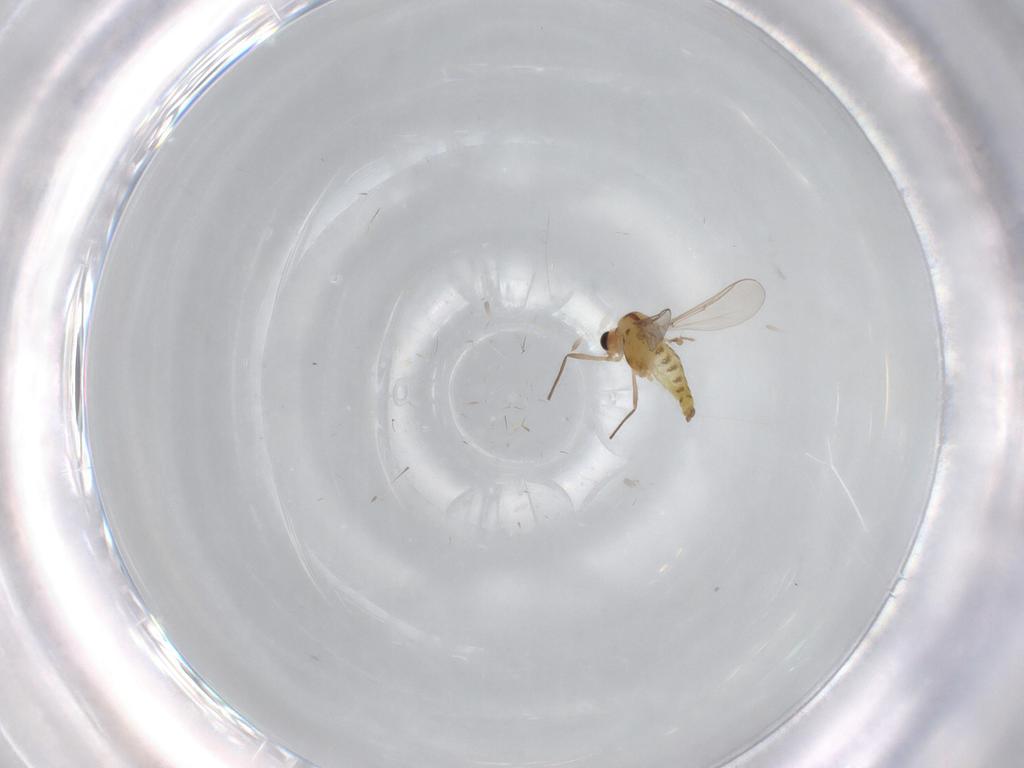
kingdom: Animalia
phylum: Arthropoda
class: Insecta
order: Diptera
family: Chironomidae
